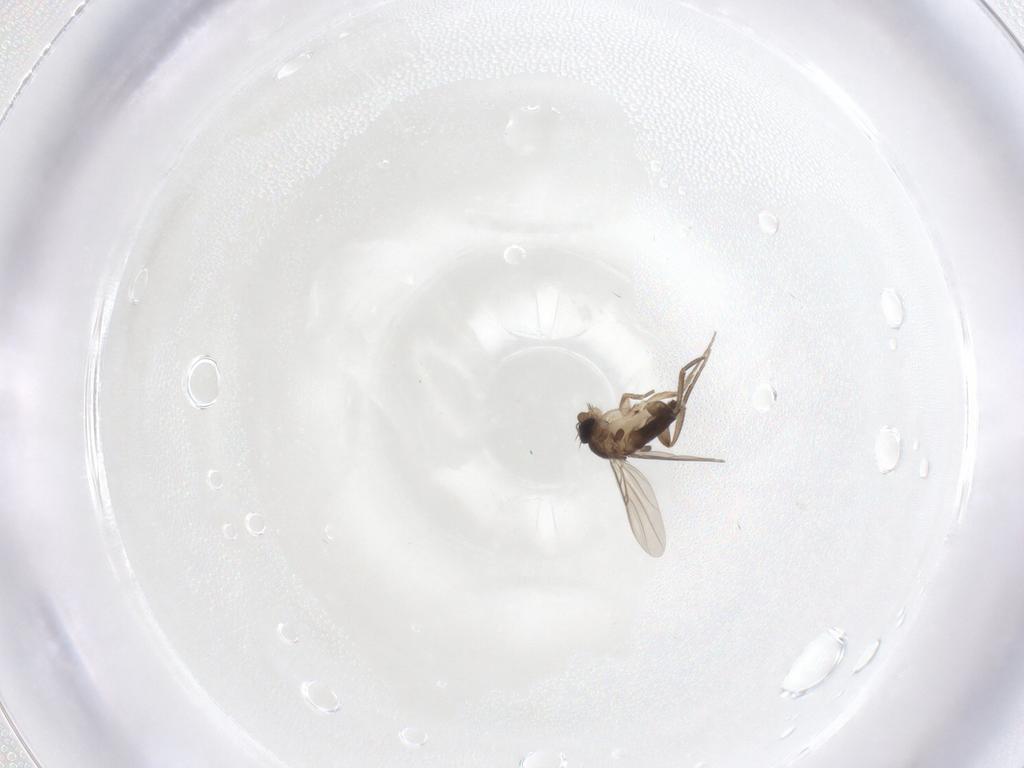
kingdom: Animalia
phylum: Arthropoda
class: Insecta
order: Diptera
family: Phoridae
